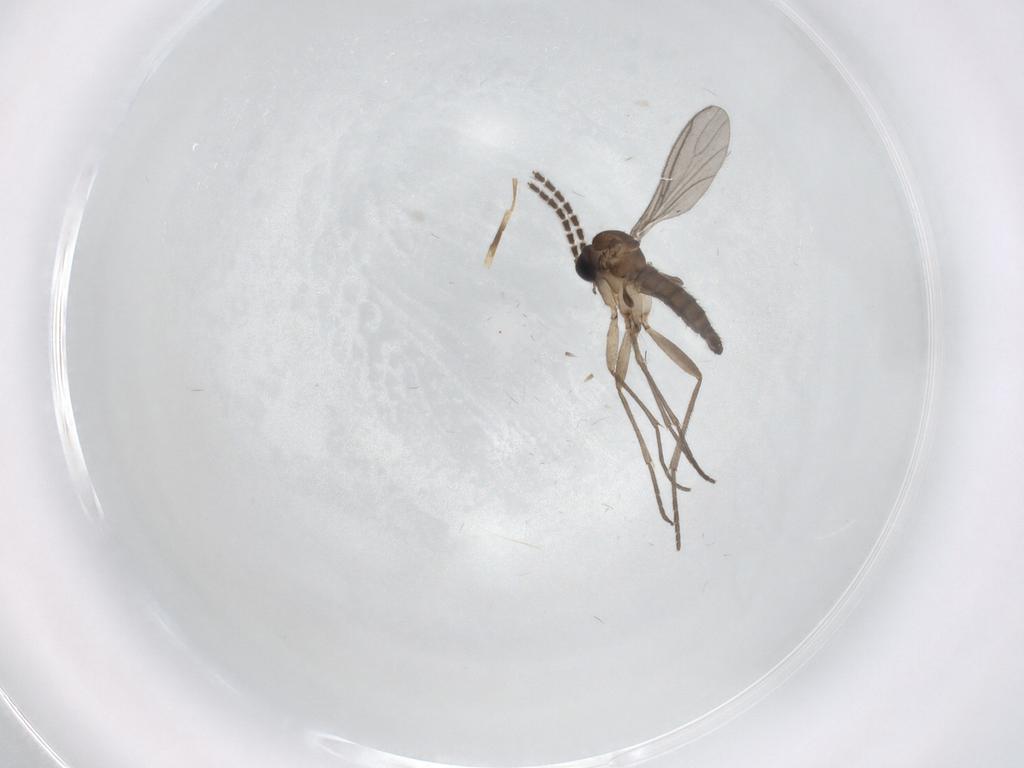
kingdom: Animalia
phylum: Arthropoda
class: Insecta
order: Diptera
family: Sciaridae
